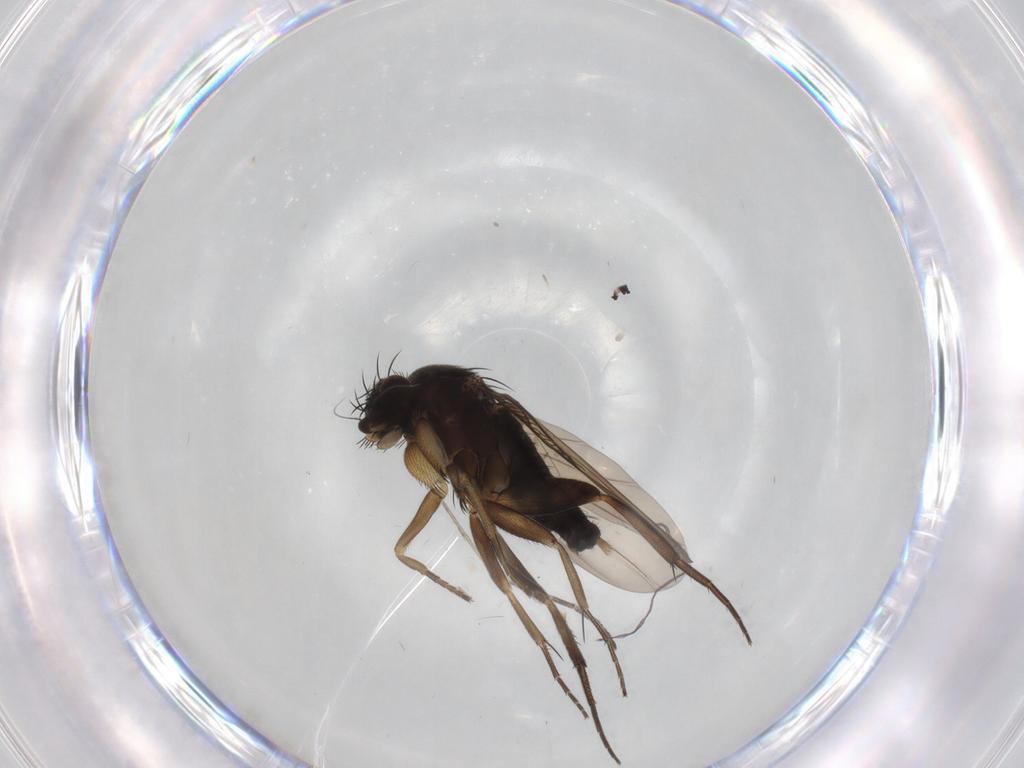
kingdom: Animalia
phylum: Arthropoda
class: Insecta
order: Diptera
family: Phoridae
